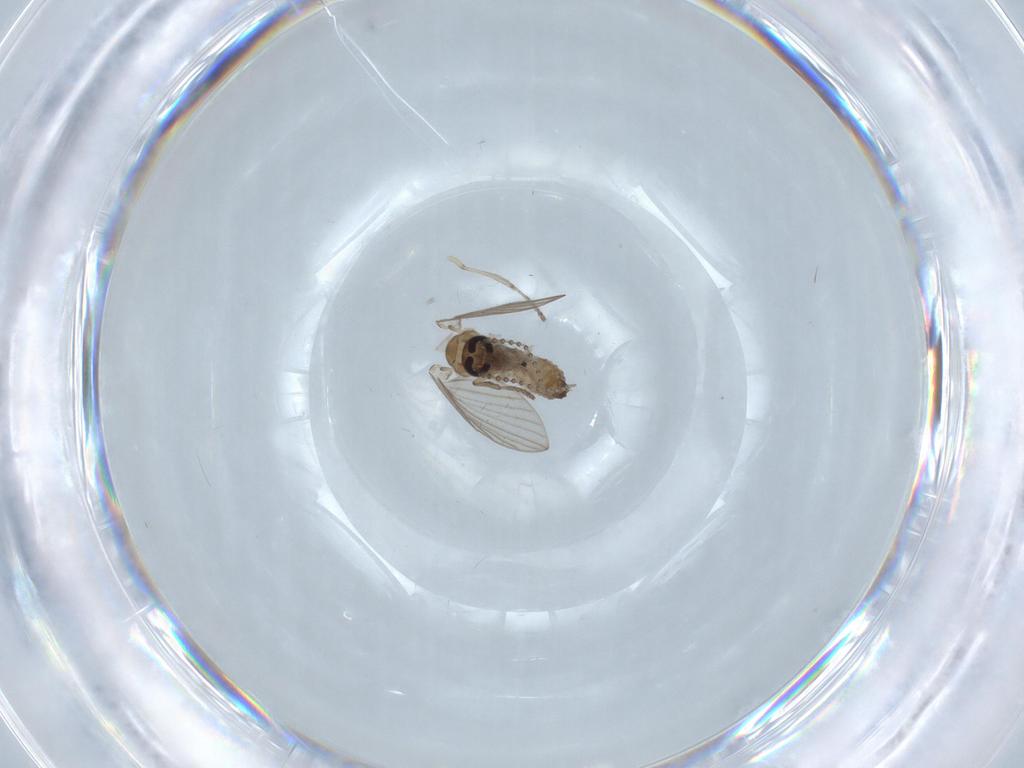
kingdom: Animalia
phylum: Arthropoda
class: Insecta
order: Diptera
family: Psychodidae
